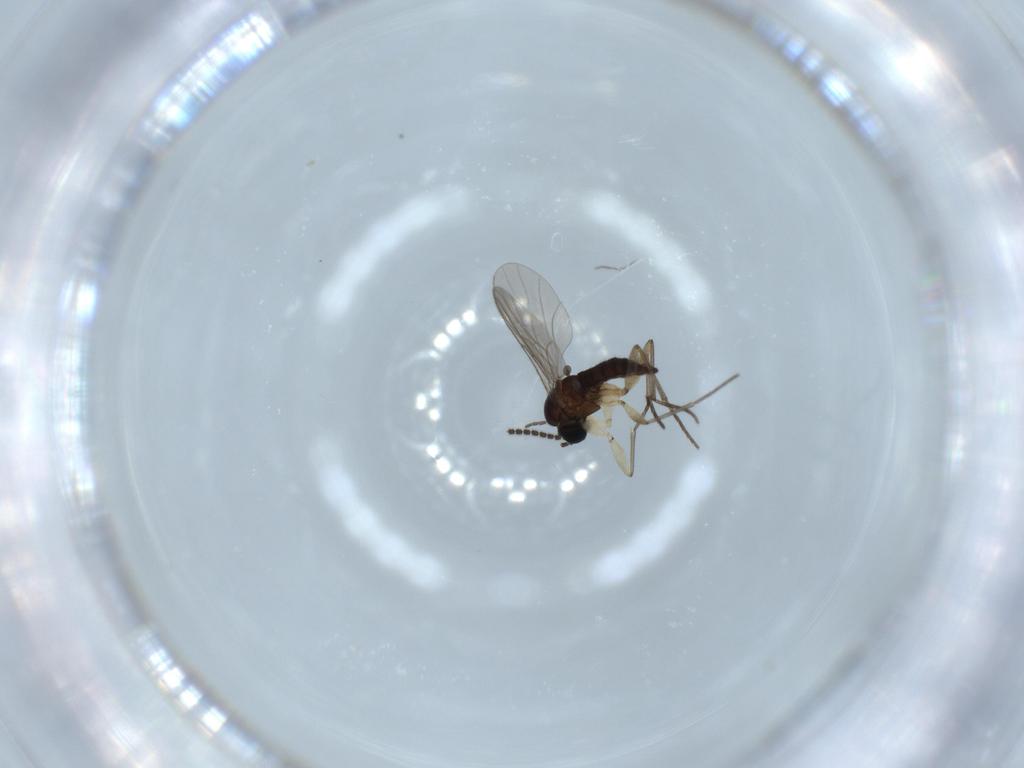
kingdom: Animalia
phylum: Arthropoda
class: Insecta
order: Diptera
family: Sciaridae
